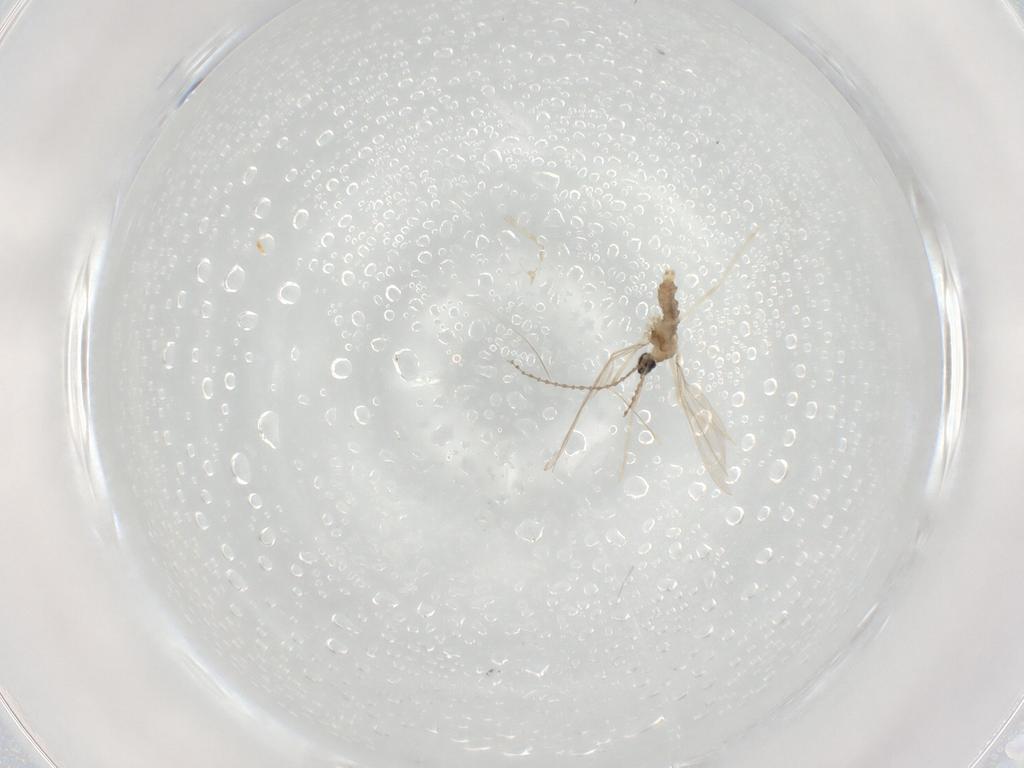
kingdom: Animalia
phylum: Arthropoda
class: Insecta
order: Diptera
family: Cecidomyiidae
